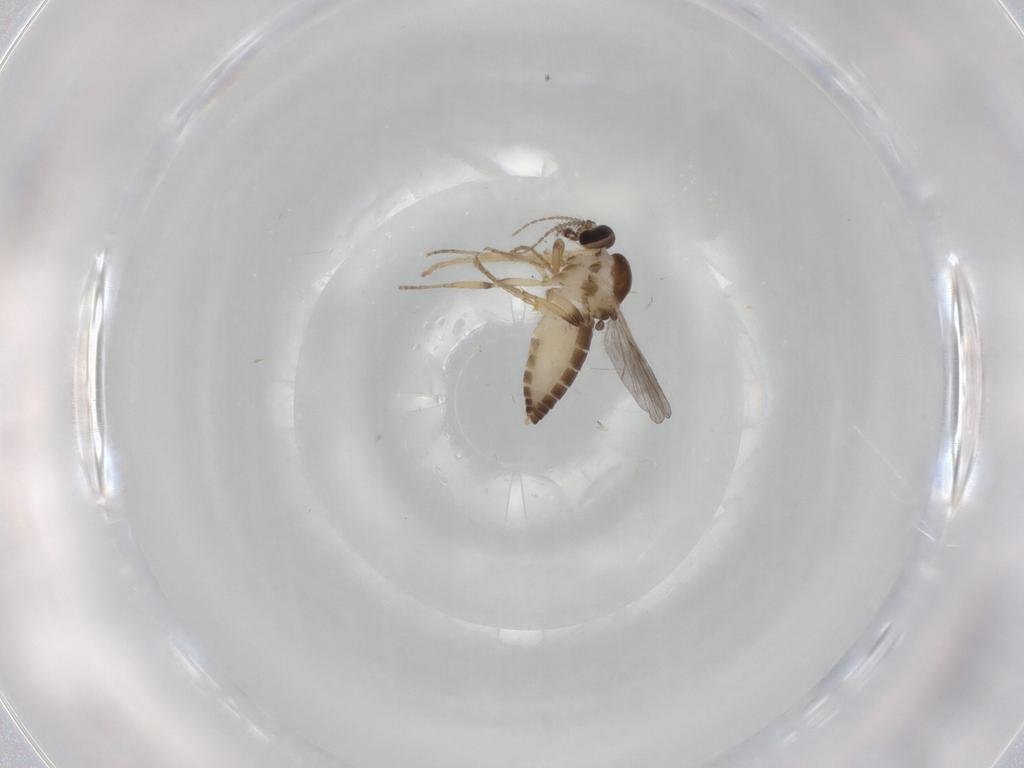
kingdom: Animalia
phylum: Arthropoda
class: Insecta
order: Diptera
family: Ceratopogonidae
